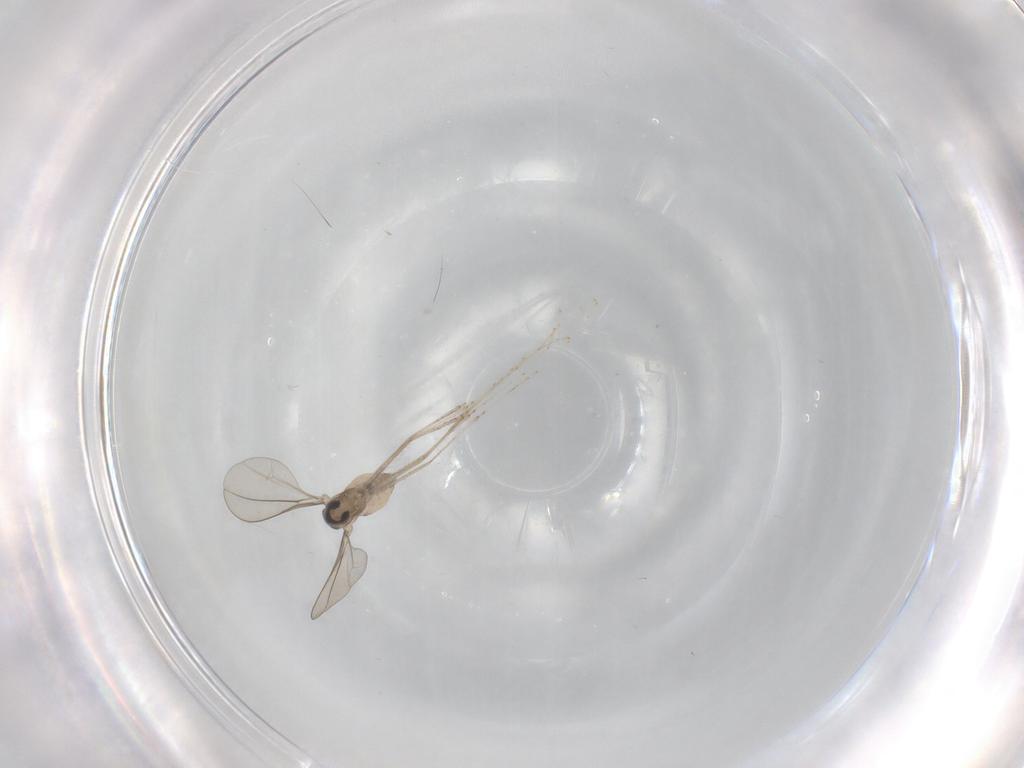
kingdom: Animalia
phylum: Arthropoda
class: Insecta
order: Diptera
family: Cecidomyiidae
